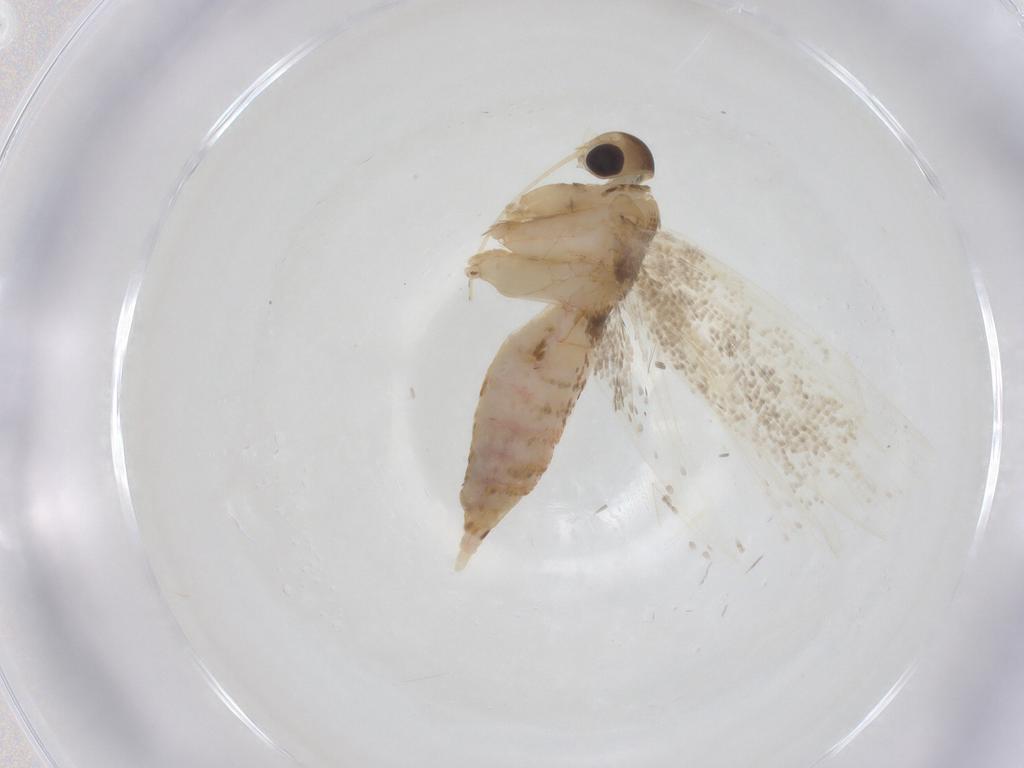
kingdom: Animalia
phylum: Arthropoda
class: Insecta
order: Lepidoptera
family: Lecithoceridae
